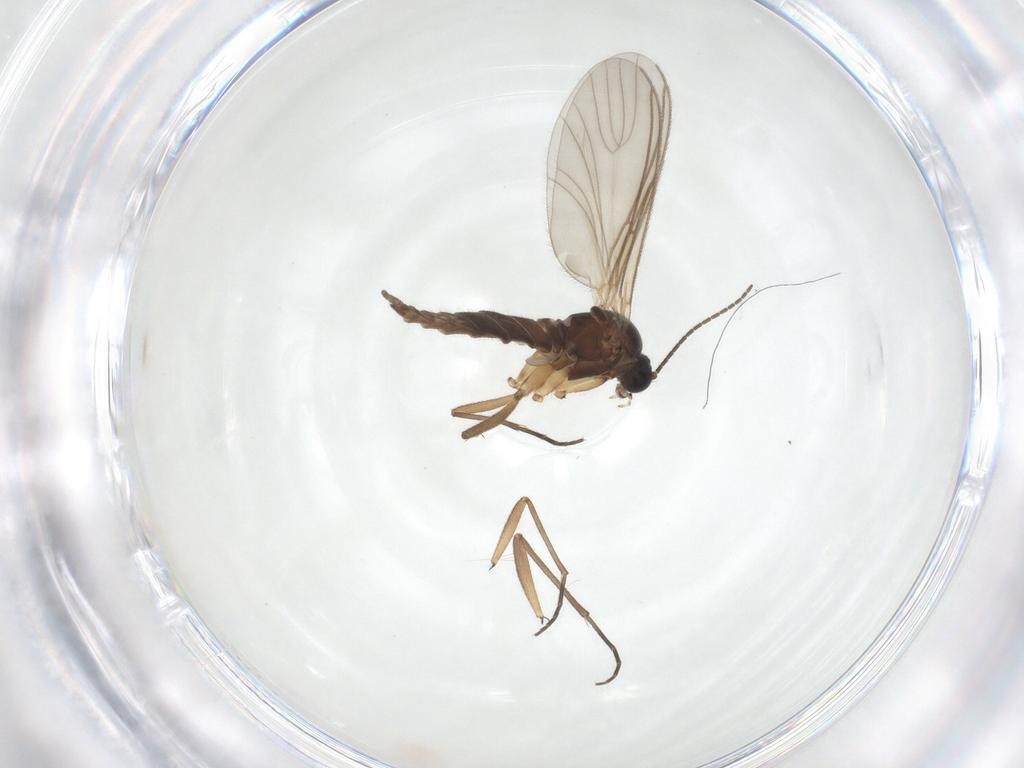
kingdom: Animalia
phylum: Arthropoda
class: Insecta
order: Diptera
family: Sciaridae
